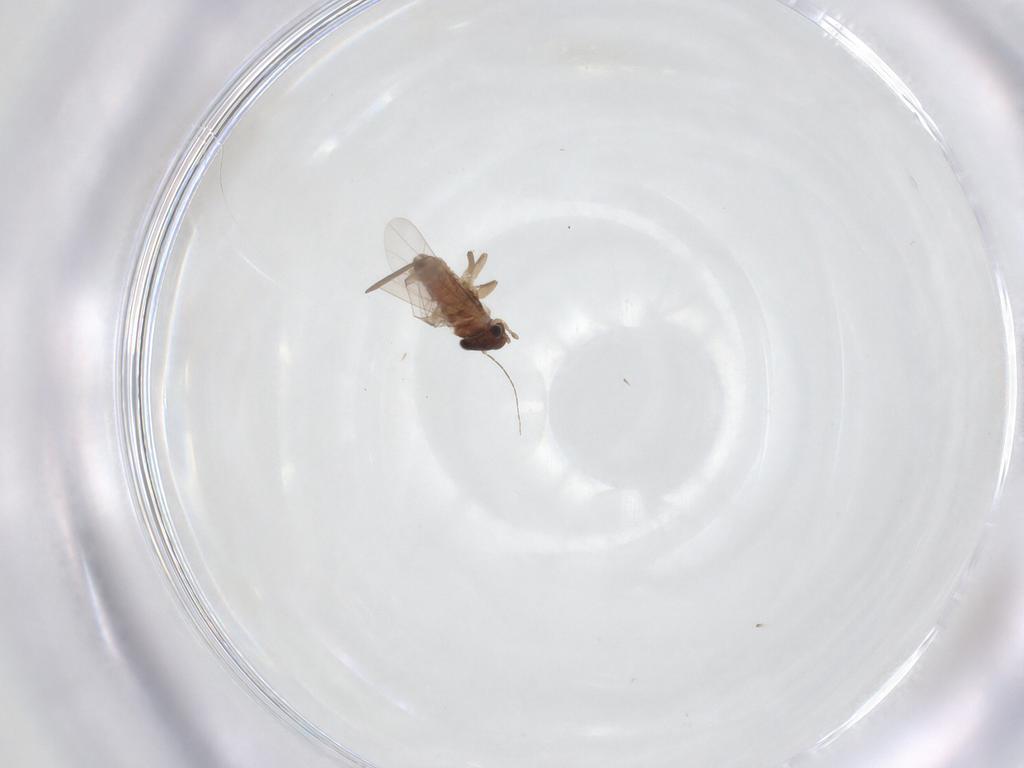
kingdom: Animalia
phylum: Arthropoda
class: Insecta
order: Psocodea
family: Lepidopsocidae
